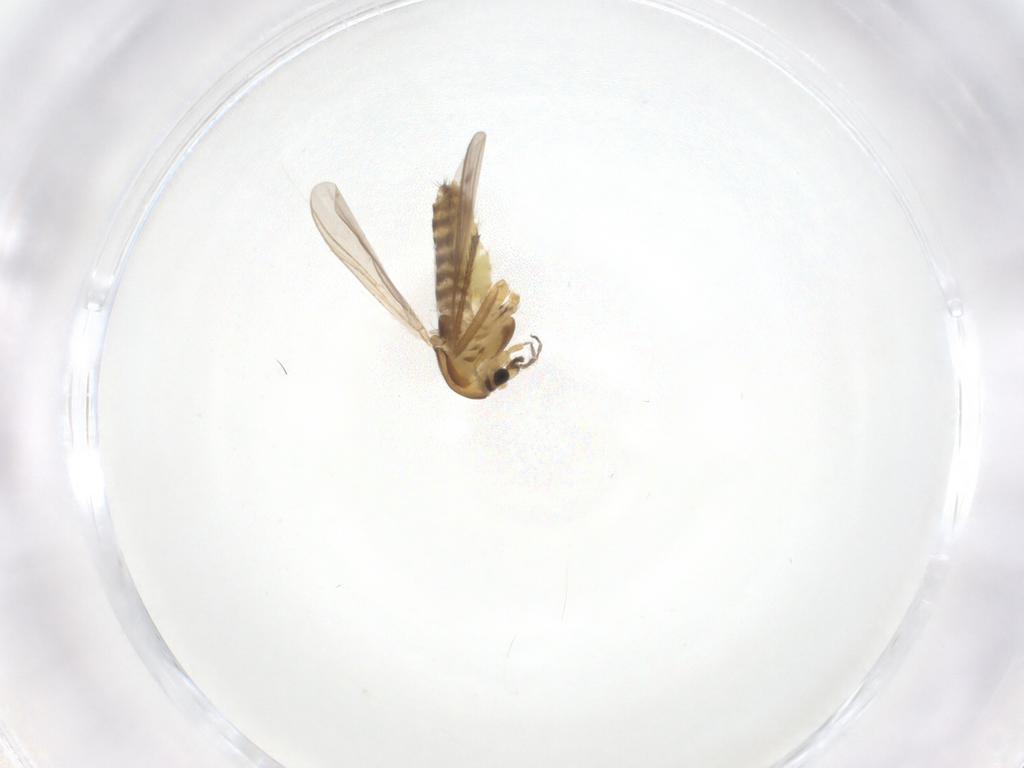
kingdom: Animalia
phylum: Arthropoda
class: Insecta
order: Diptera
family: Chironomidae
